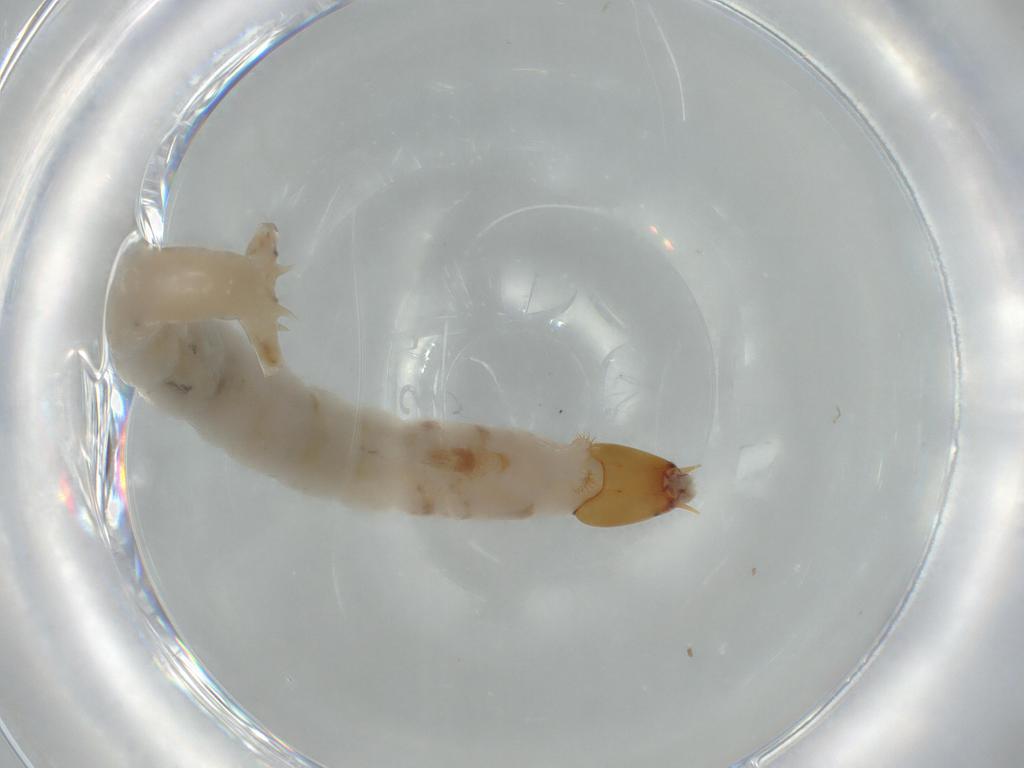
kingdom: Animalia
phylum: Arthropoda
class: Insecta
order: Diptera
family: Chironomidae
